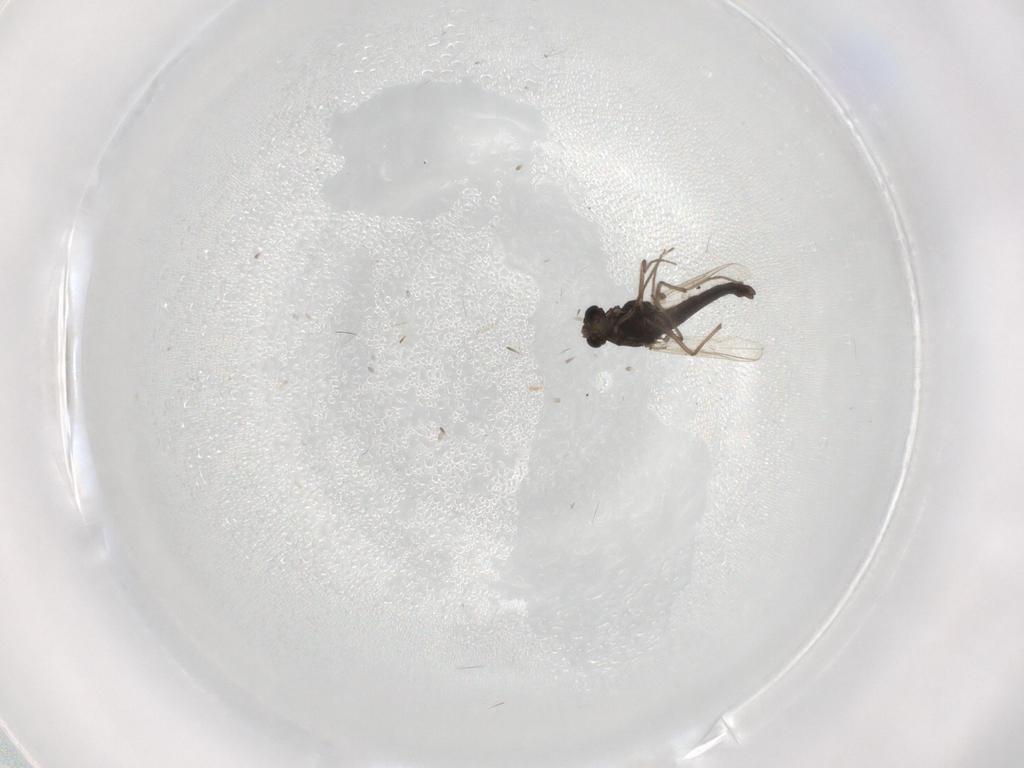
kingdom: Animalia
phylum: Arthropoda
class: Insecta
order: Diptera
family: Chironomidae
